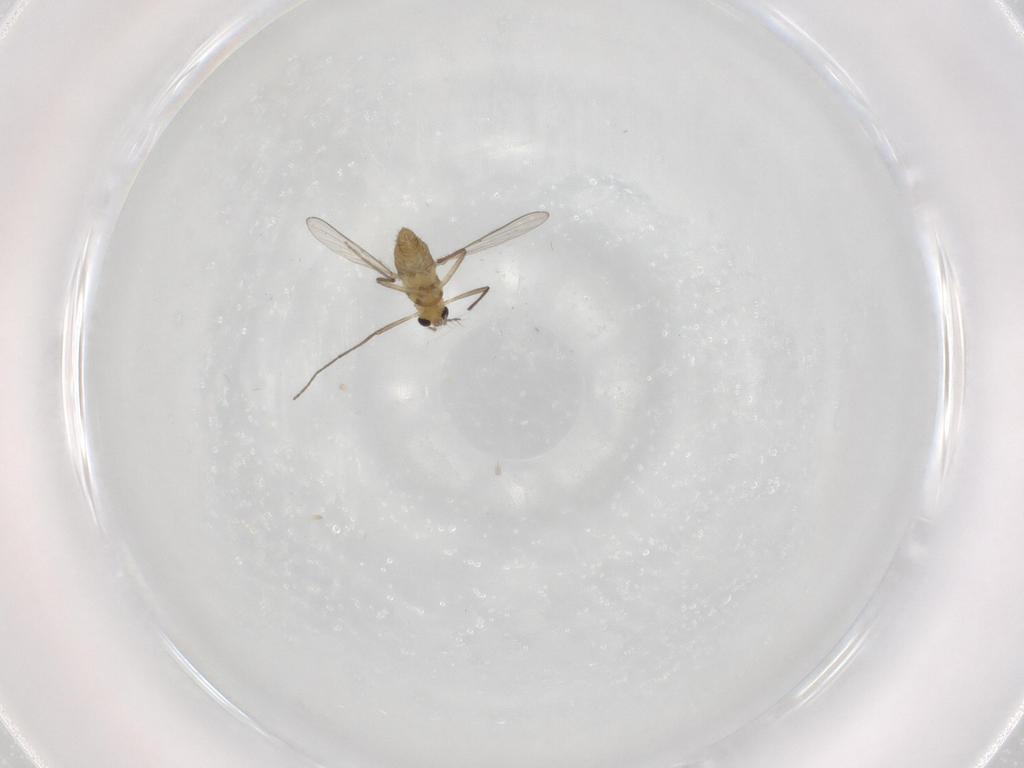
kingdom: Animalia
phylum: Arthropoda
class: Insecta
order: Diptera
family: Chironomidae
